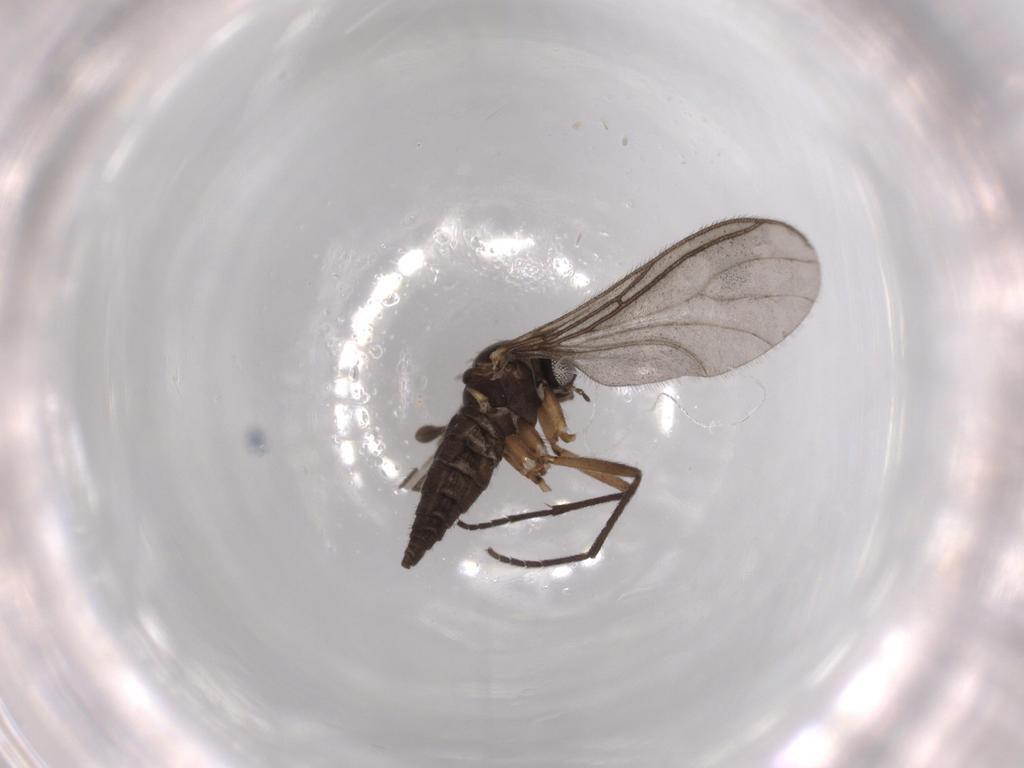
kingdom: Animalia
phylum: Arthropoda
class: Insecta
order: Diptera
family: Sciaridae
